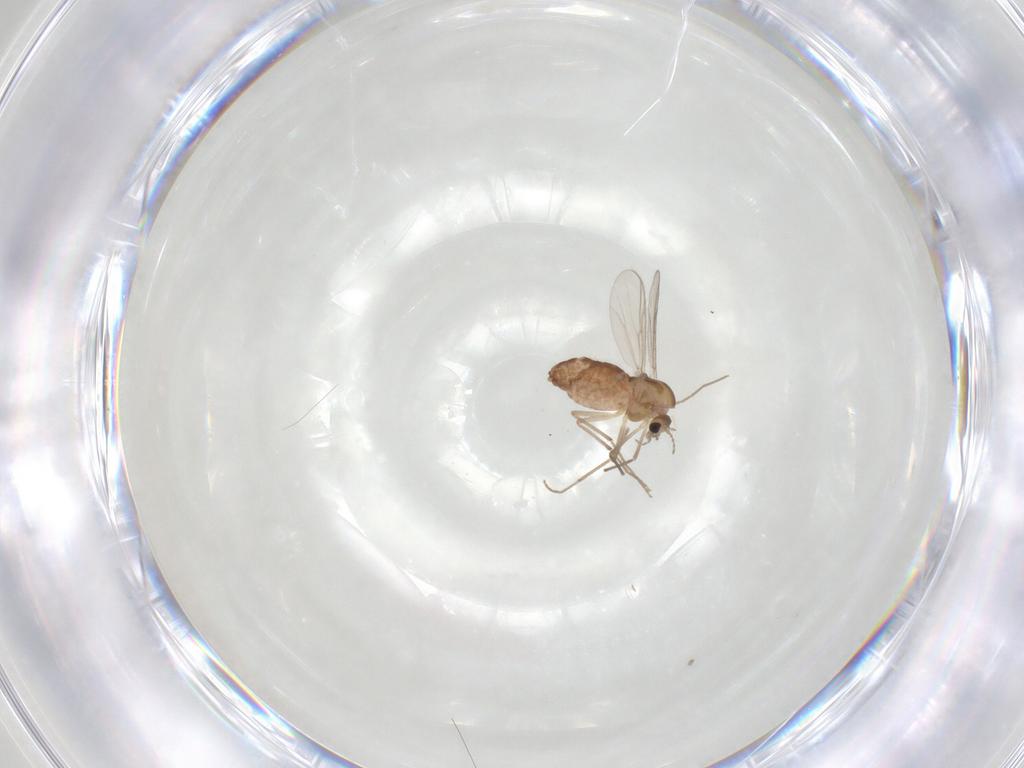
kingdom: Animalia
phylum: Arthropoda
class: Insecta
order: Diptera
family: Chironomidae
